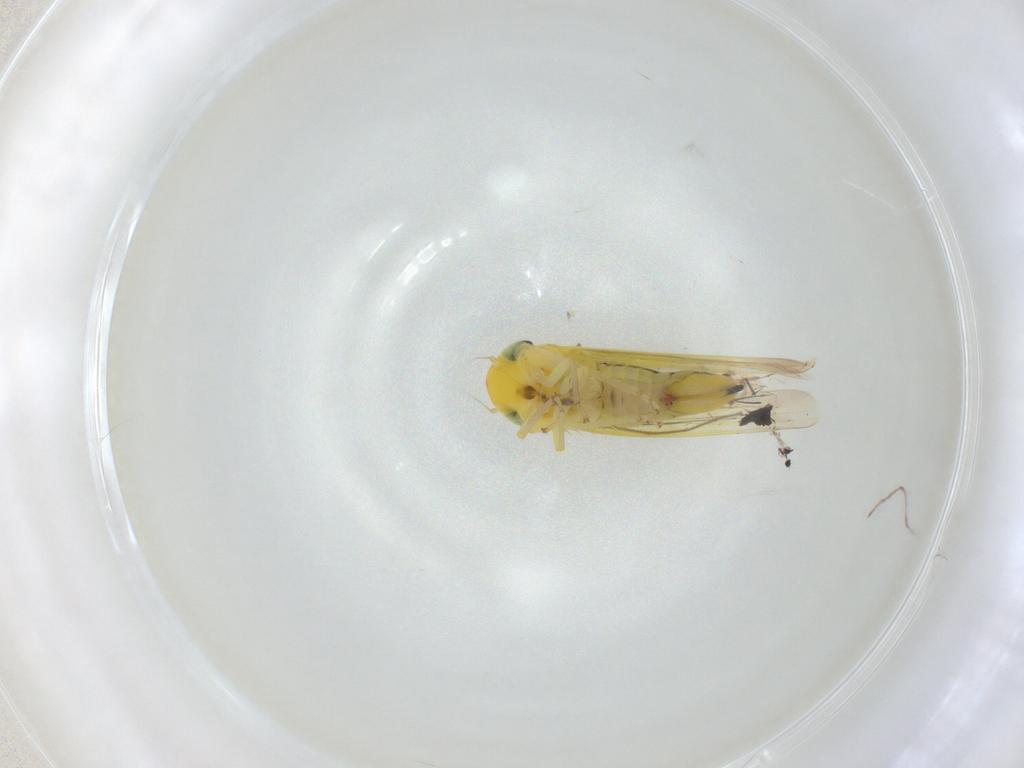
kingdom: Animalia
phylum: Arthropoda
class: Insecta
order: Hemiptera
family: Cicadellidae
